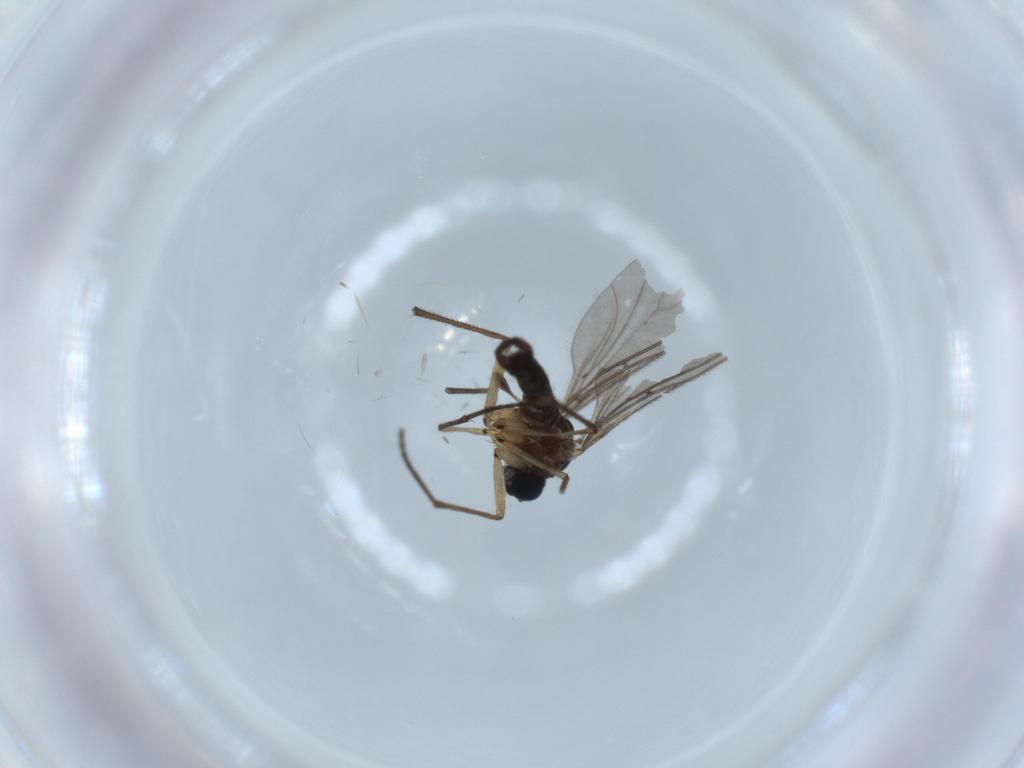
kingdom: Animalia
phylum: Arthropoda
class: Insecta
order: Diptera
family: Sciaridae
